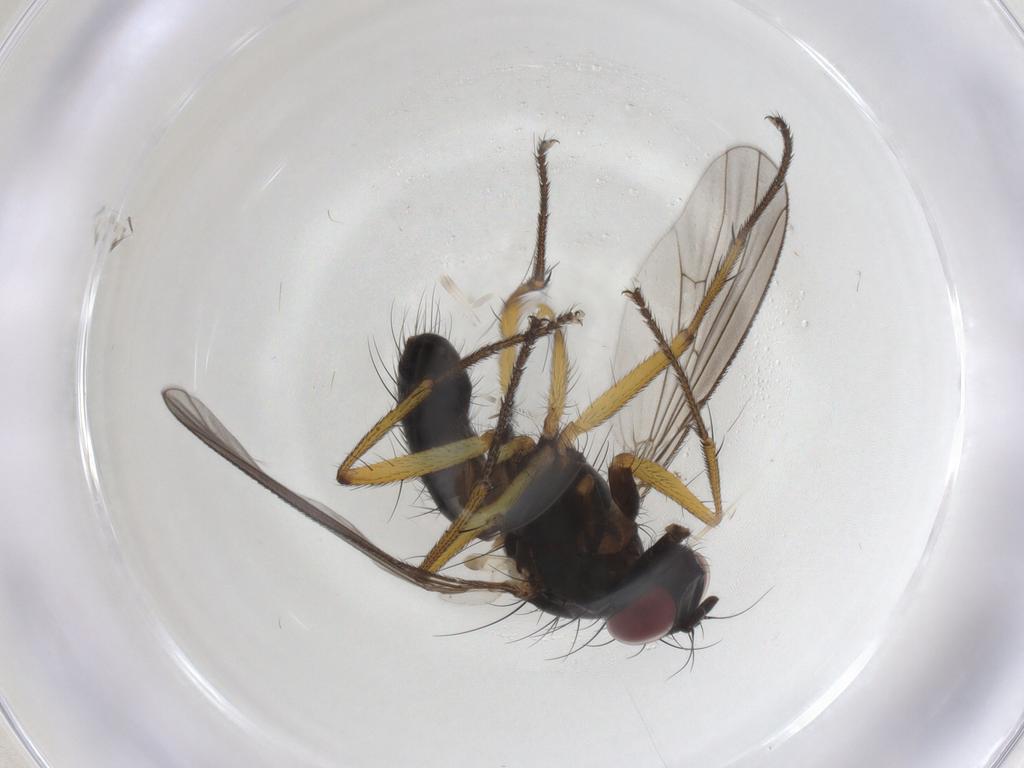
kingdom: Animalia
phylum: Arthropoda
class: Insecta
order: Diptera
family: Muscidae
